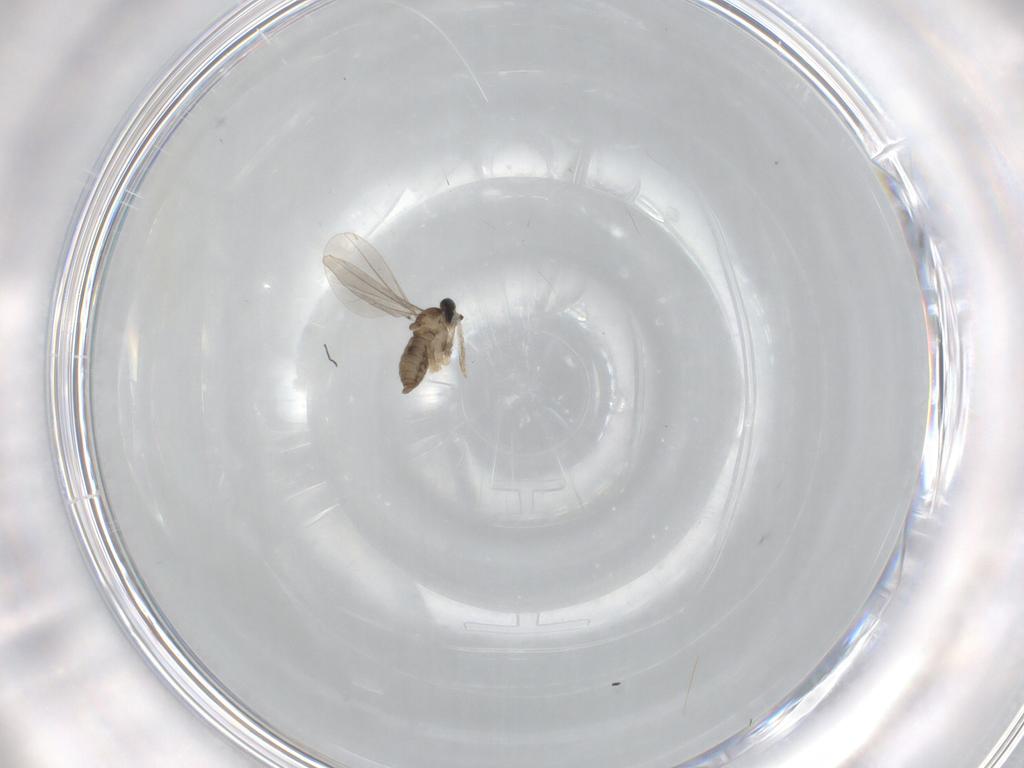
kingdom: Animalia
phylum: Arthropoda
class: Insecta
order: Diptera
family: Cecidomyiidae
